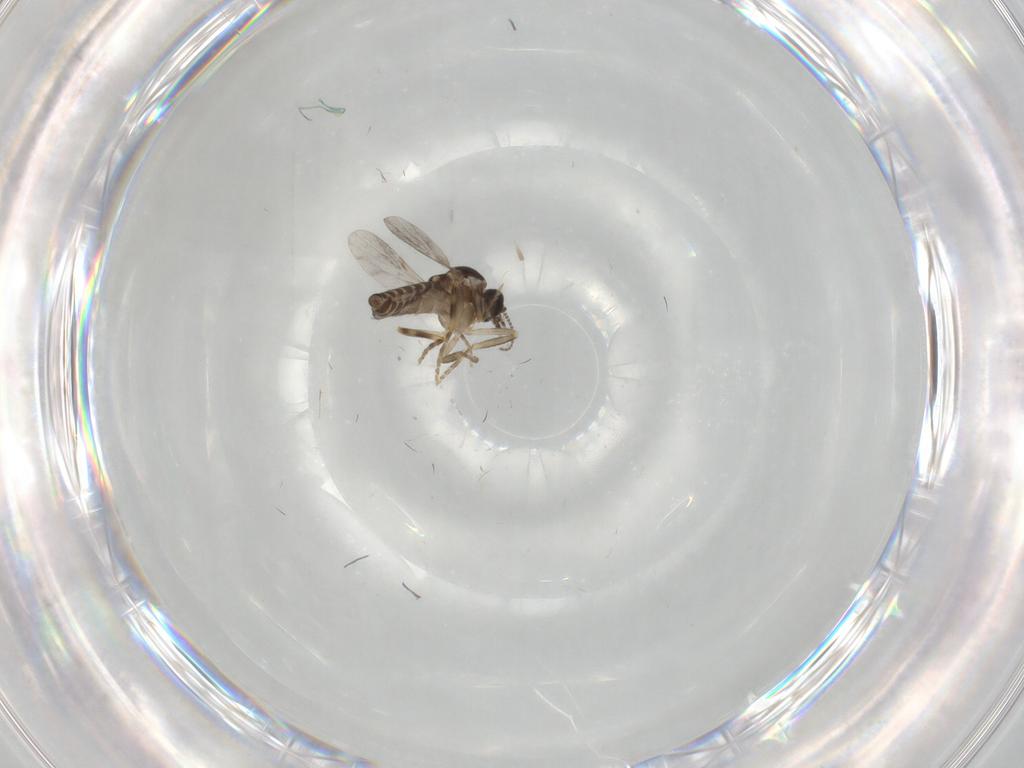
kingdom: Animalia
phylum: Arthropoda
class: Insecta
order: Diptera
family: Ceratopogonidae
